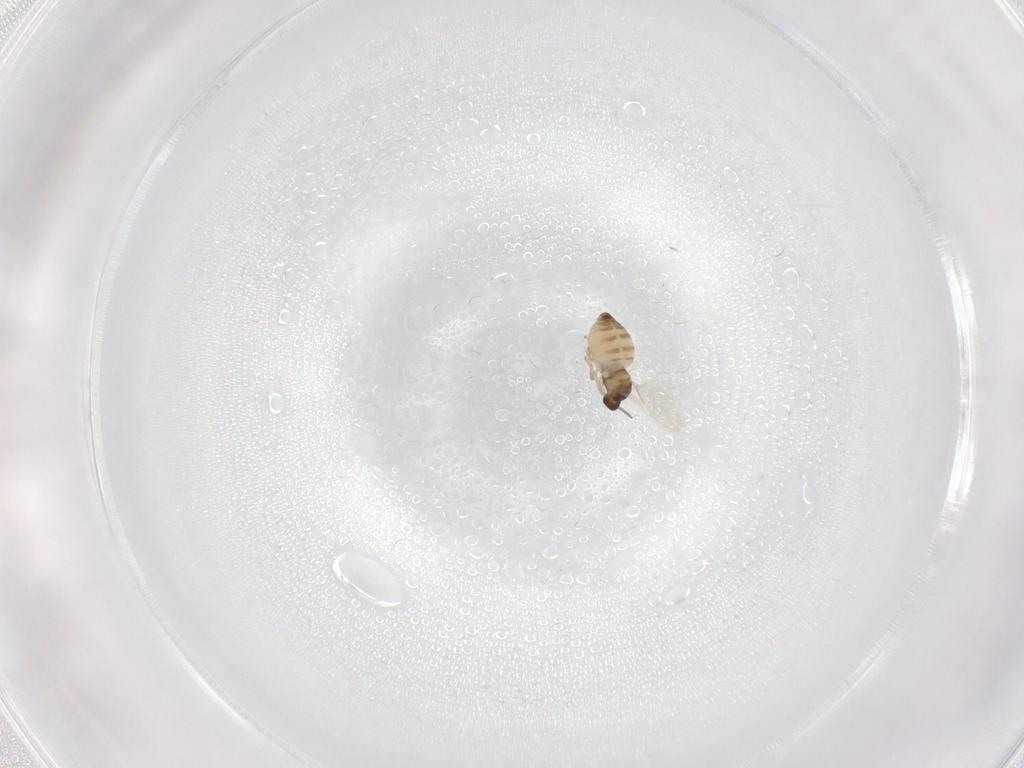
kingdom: Animalia
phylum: Arthropoda
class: Insecta
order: Diptera
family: Cecidomyiidae
